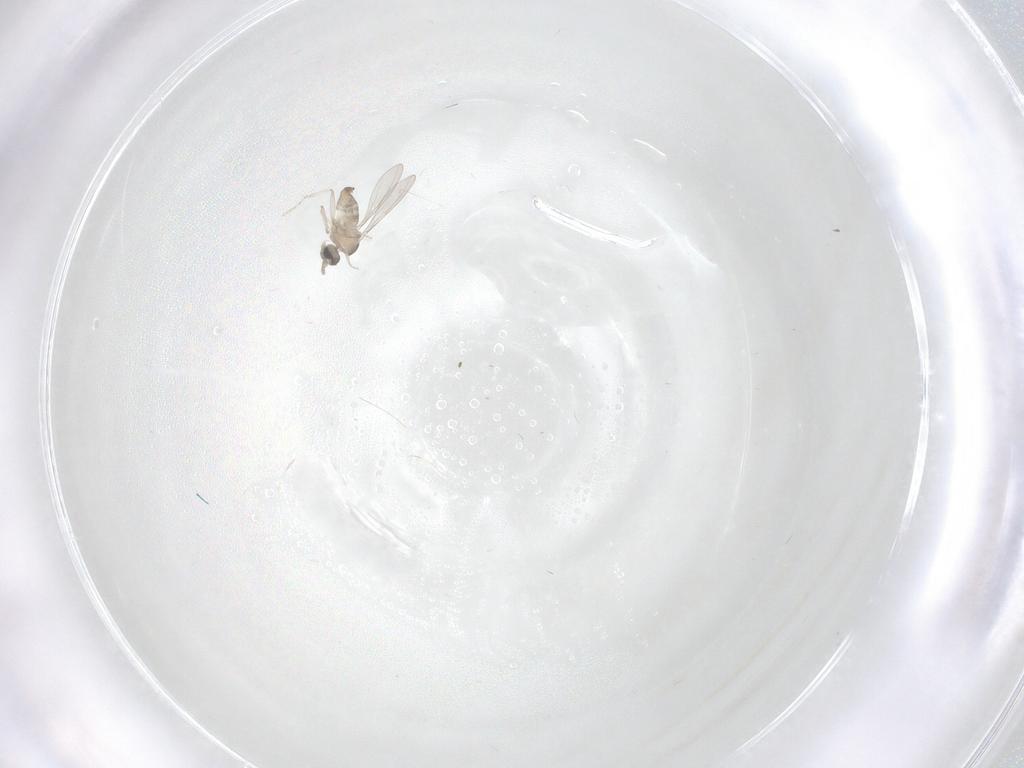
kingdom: Animalia
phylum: Arthropoda
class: Insecta
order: Diptera
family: Cecidomyiidae
